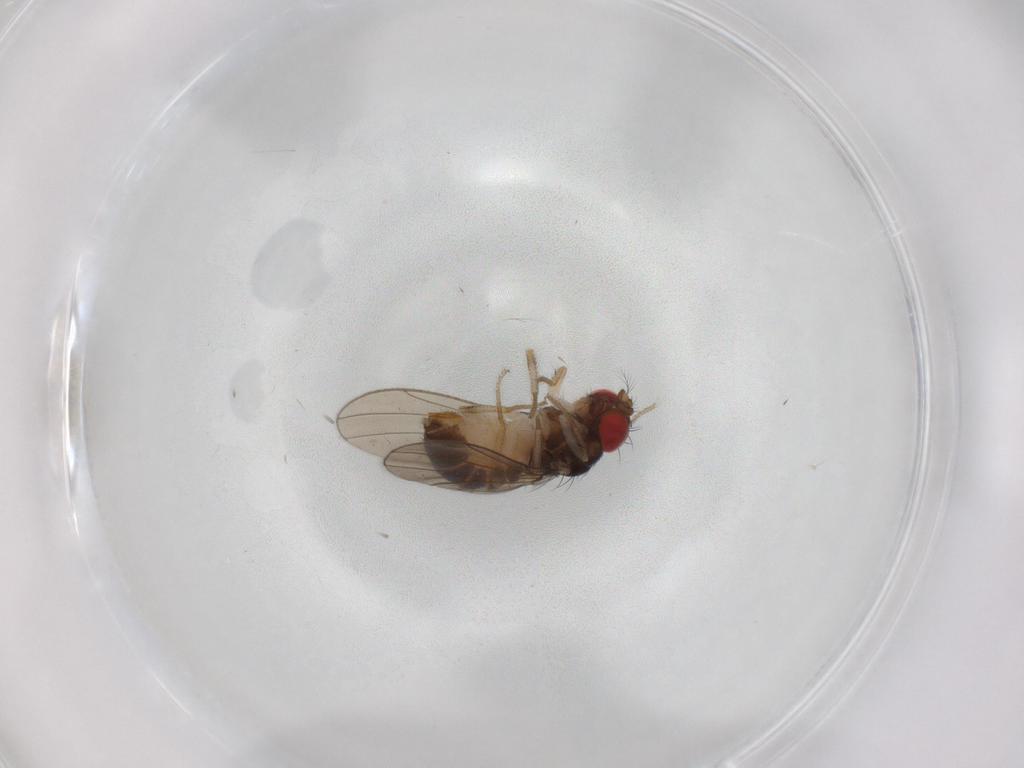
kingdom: Animalia
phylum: Arthropoda
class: Insecta
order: Diptera
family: Drosophilidae
